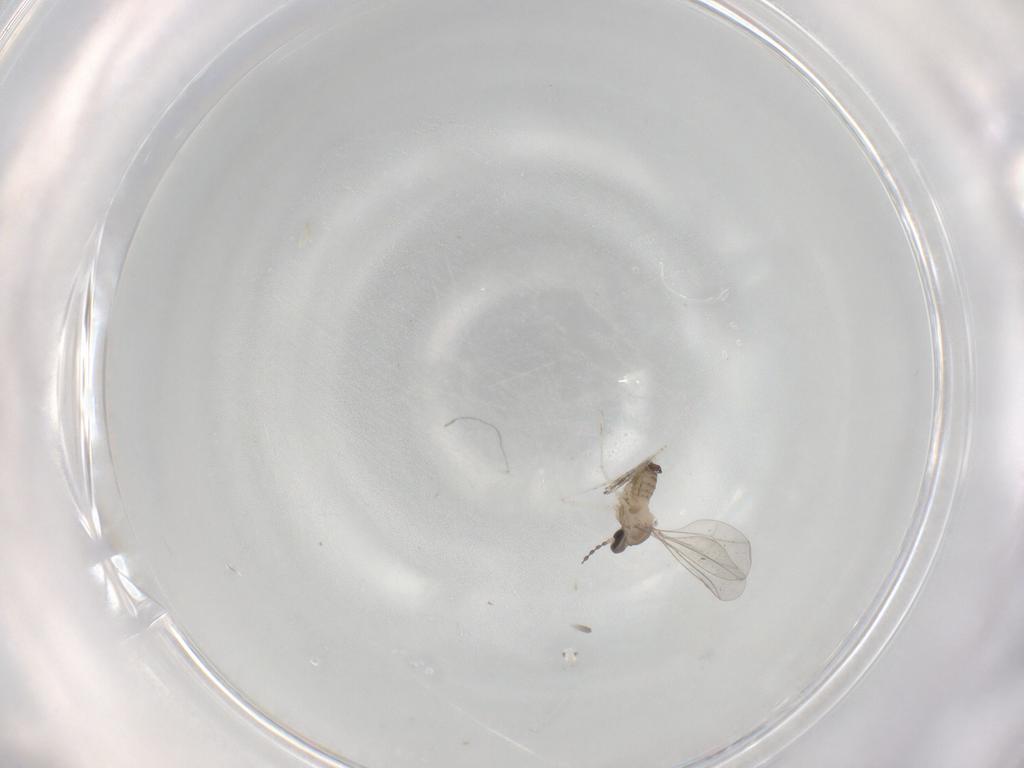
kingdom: Animalia
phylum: Arthropoda
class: Insecta
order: Diptera
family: Cecidomyiidae
